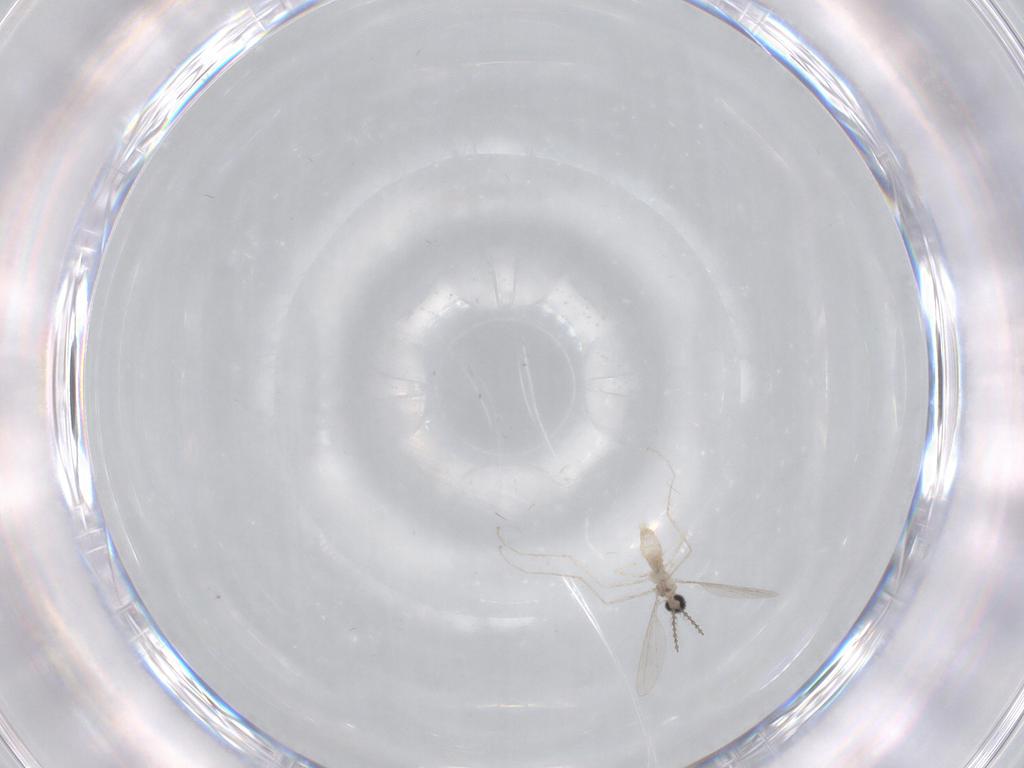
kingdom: Animalia
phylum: Arthropoda
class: Insecta
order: Diptera
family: Cecidomyiidae
